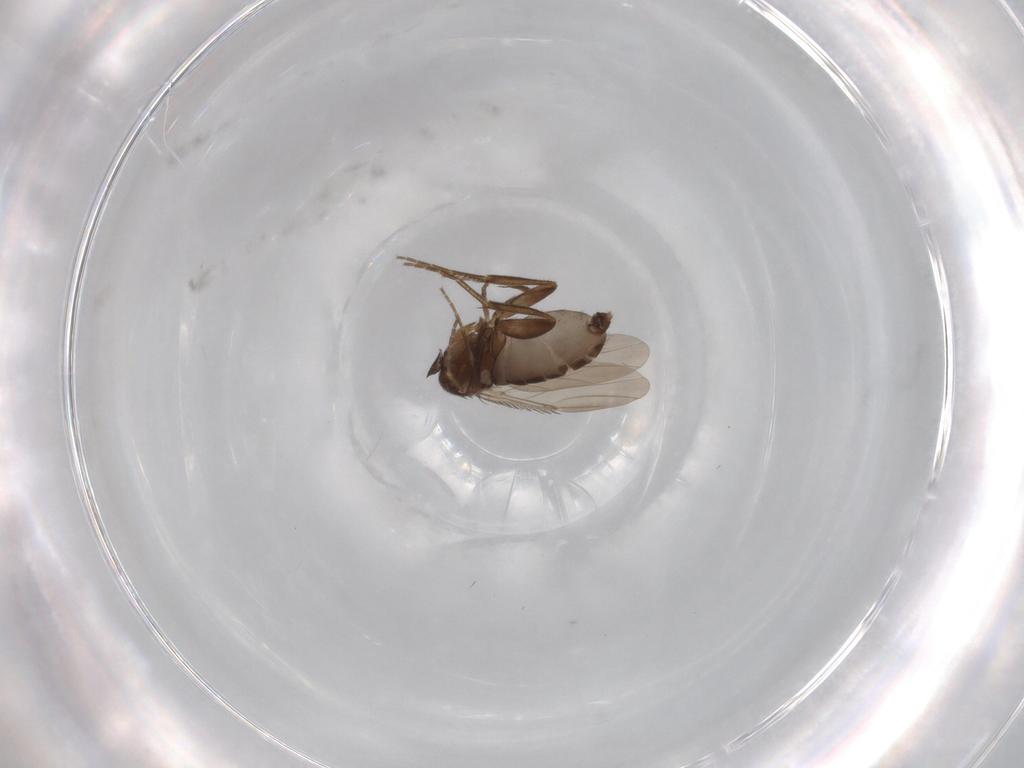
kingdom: Animalia
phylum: Arthropoda
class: Insecta
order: Diptera
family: Phoridae
